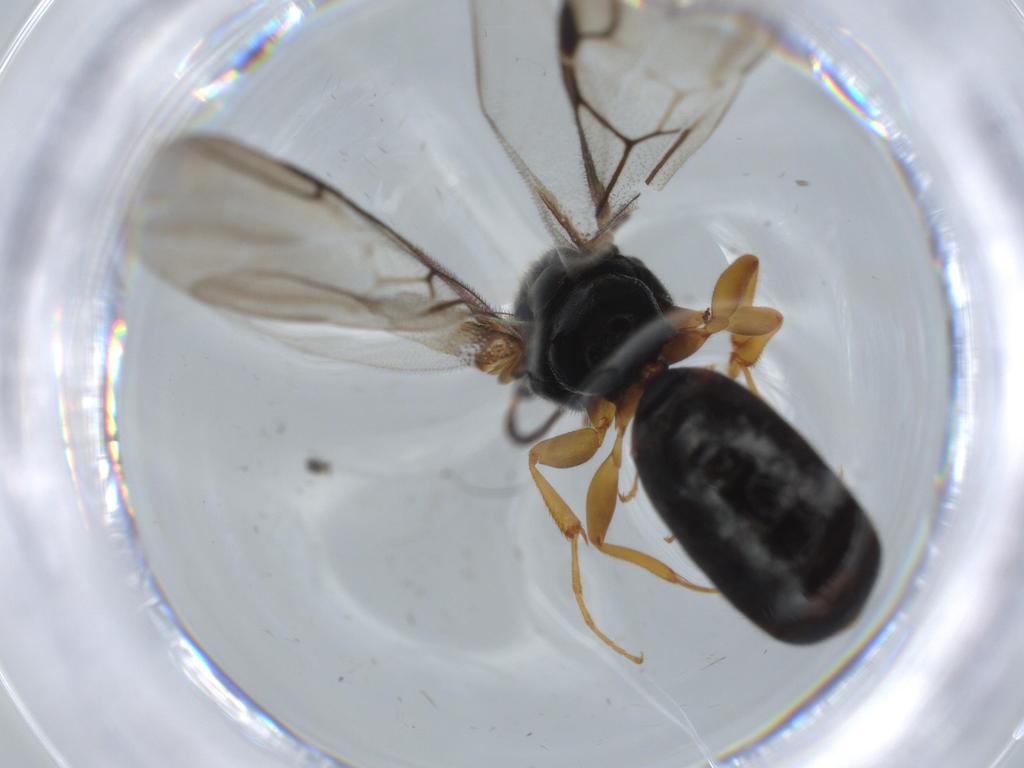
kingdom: Animalia
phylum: Arthropoda
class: Insecta
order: Hymenoptera
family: Bethylidae
